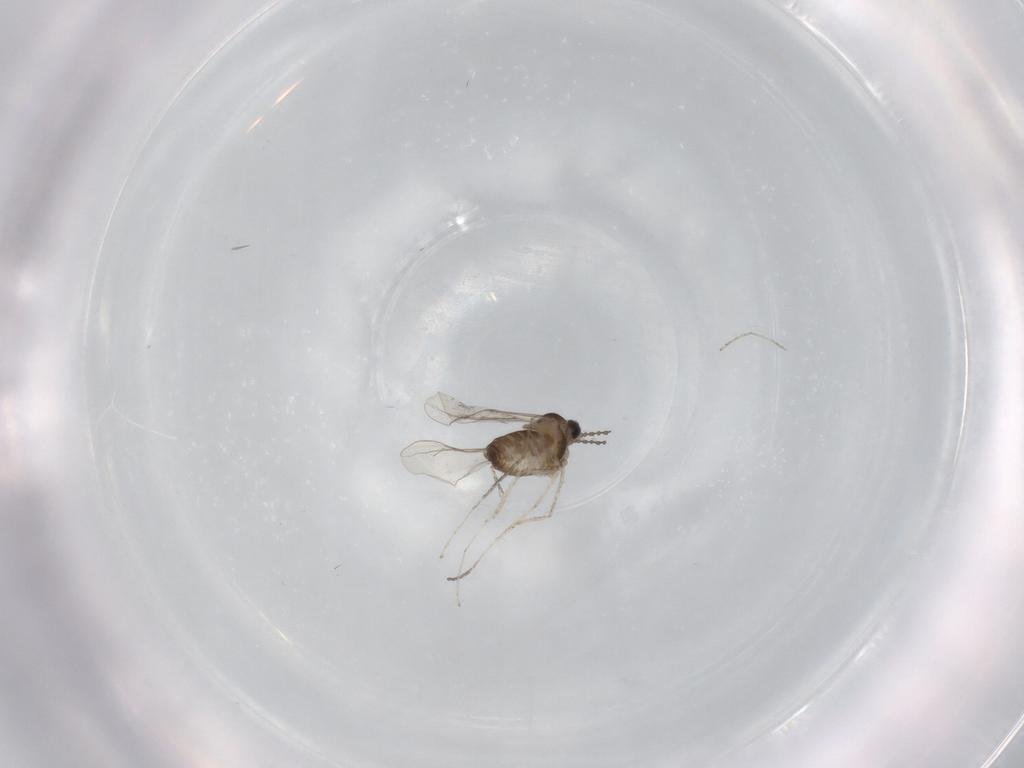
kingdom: Animalia
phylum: Arthropoda
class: Insecta
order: Diptera
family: Cecidomyiidae
